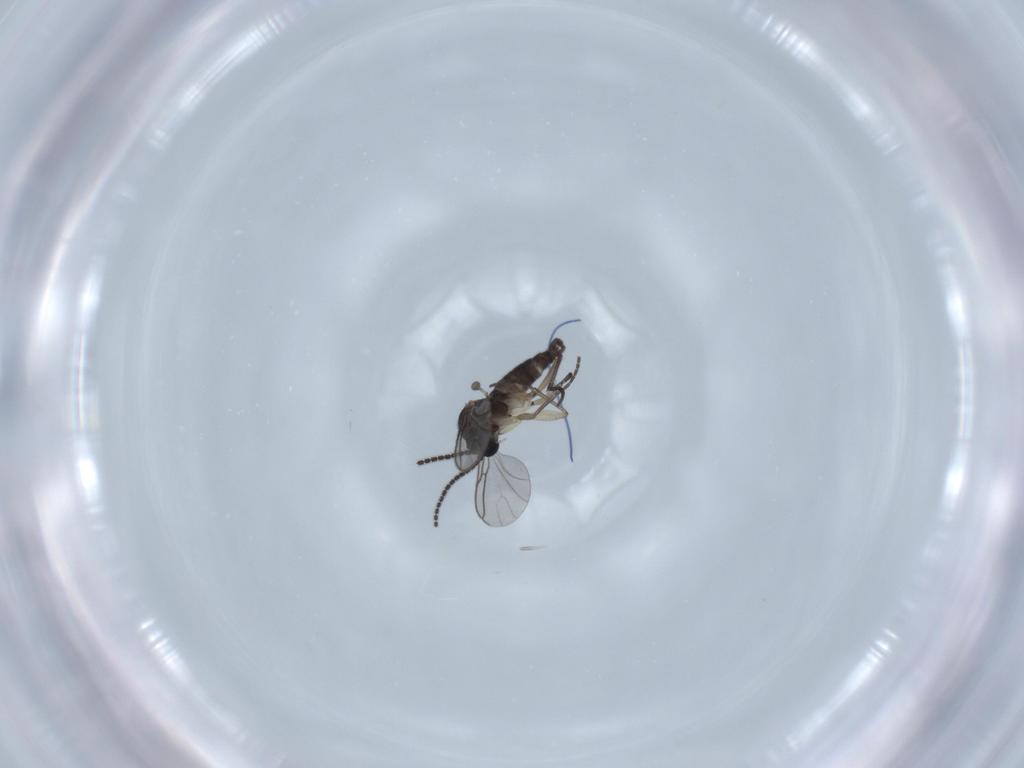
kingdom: Animalia
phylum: Arthropoda
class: Insecta
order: Diptera
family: Sciaridae
